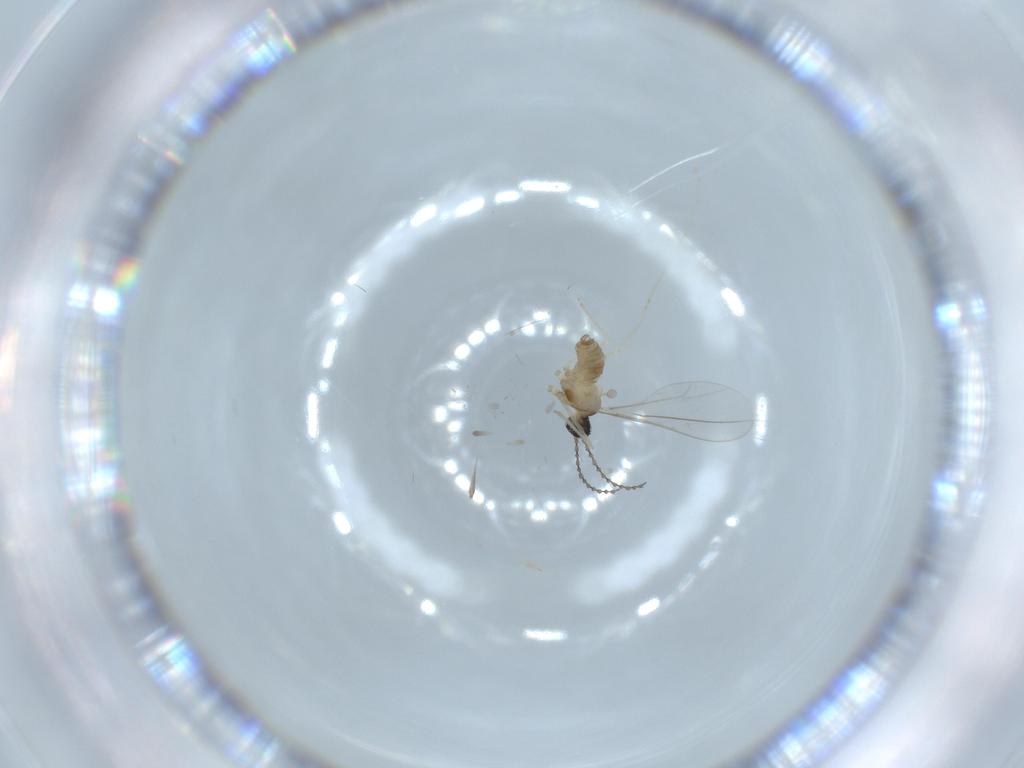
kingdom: Animalia
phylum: Arthropoda
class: Insecta
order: Diptera
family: Cecidomyiidae
